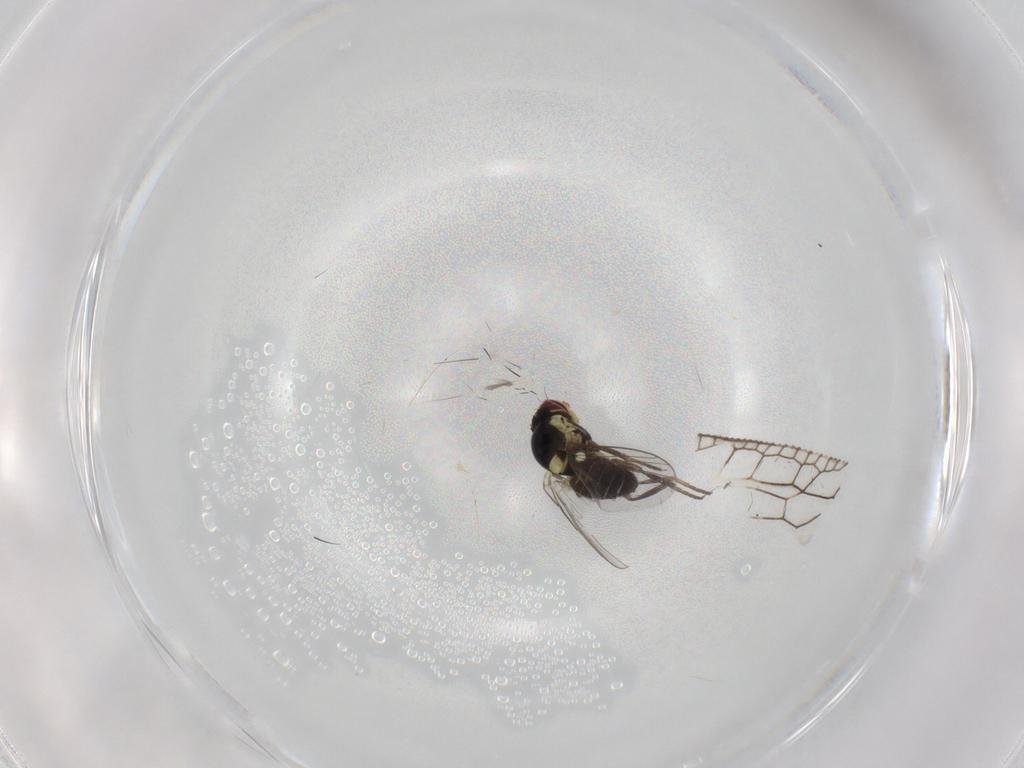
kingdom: Animalia
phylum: Arthropoda
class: Insecta
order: Diptera
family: Agromyzidae
